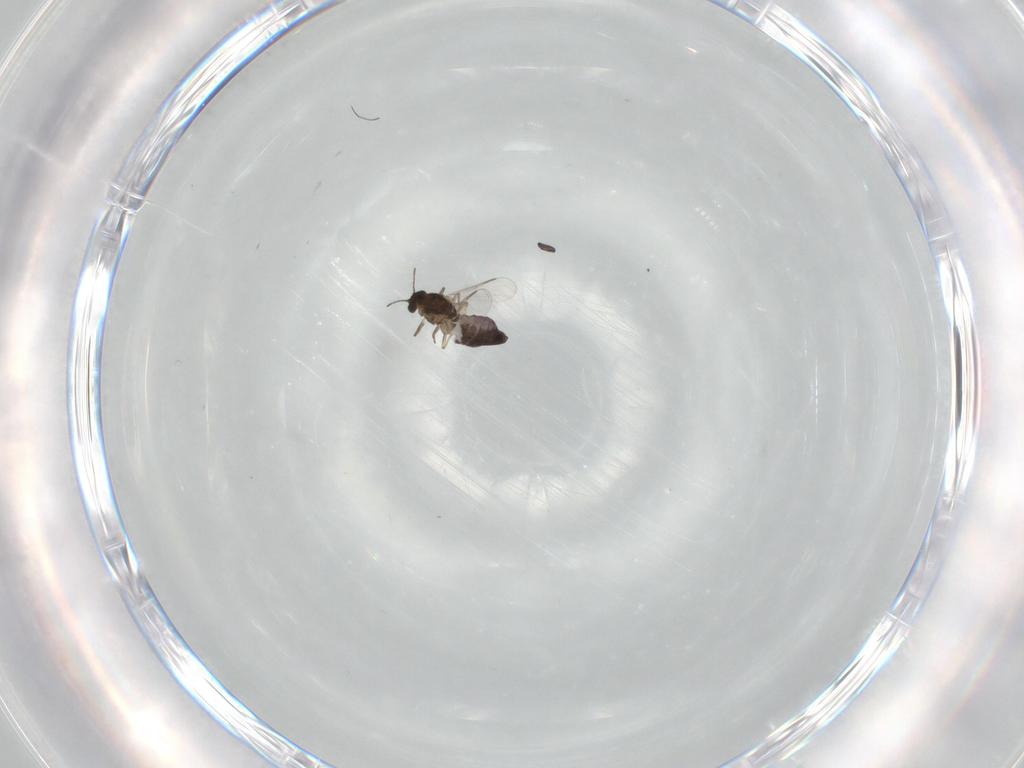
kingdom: Animalia
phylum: Arthropoda
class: Insecta
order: Diptera
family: Chironomidae
